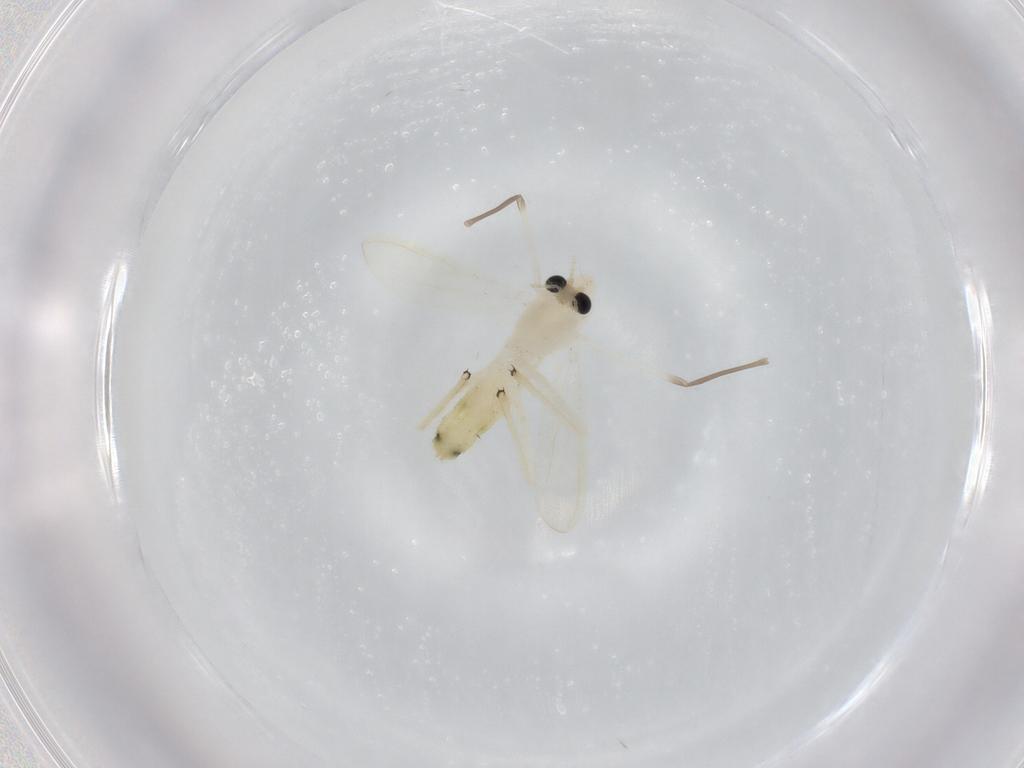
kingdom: Animalia
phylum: Arthropoda
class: Insecta
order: Diptera
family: Chironomidae
